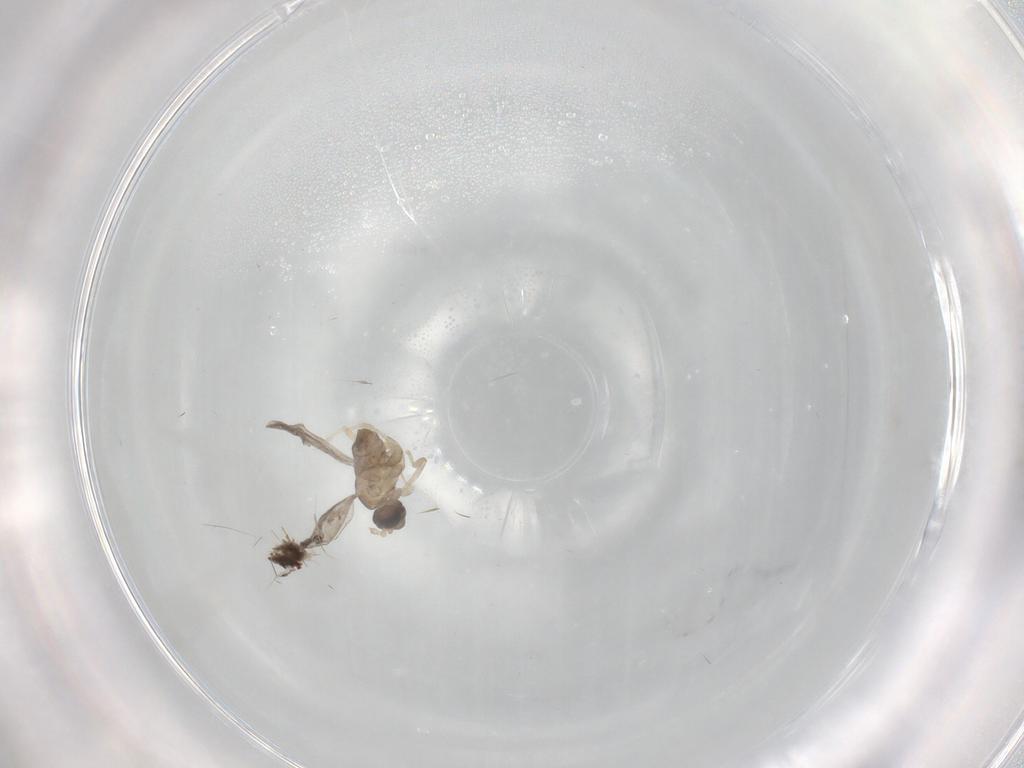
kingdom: Animalia
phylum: Arthropoda
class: Insecta
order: Diptera
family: Cecidomyiidae
